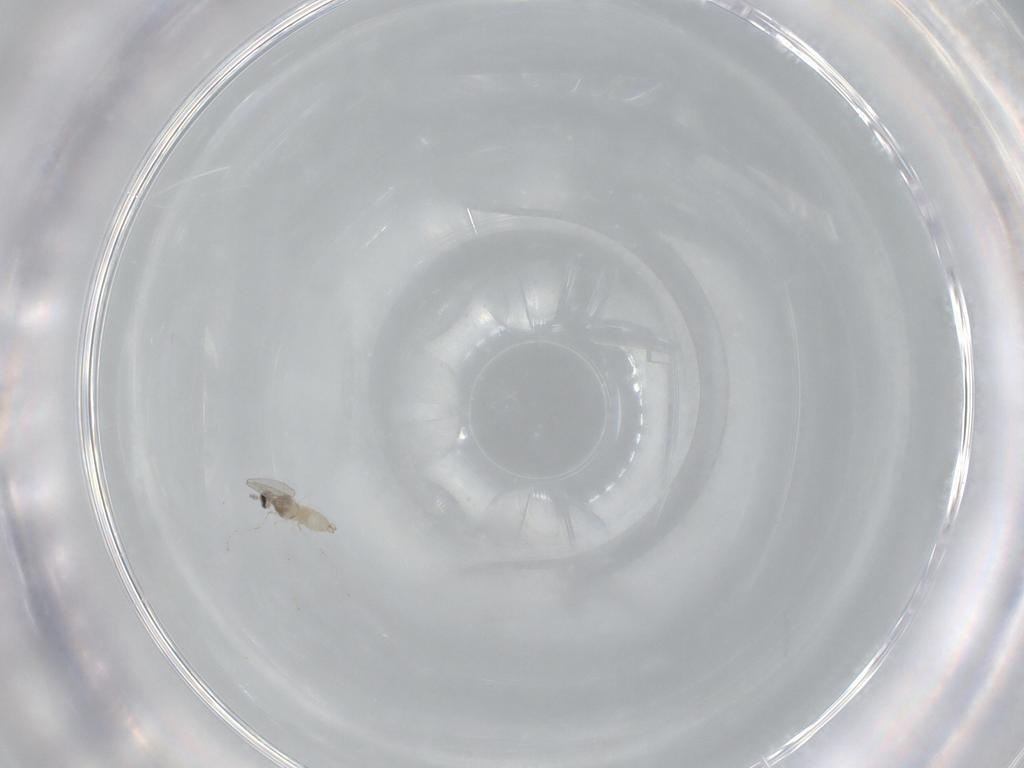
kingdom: Animalia
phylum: Arthropoda
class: Insecta
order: Diptera
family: Cecidomyiidae
